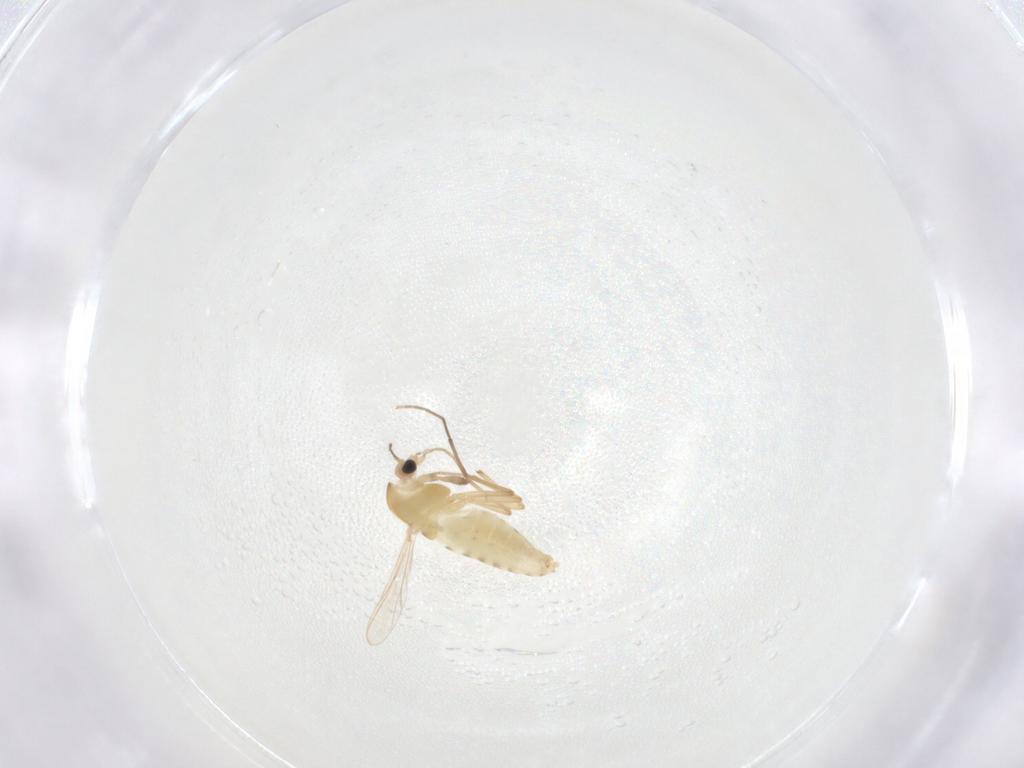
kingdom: Animalia
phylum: Arthropoda
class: Insecta
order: Diptera
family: Chironomidae
